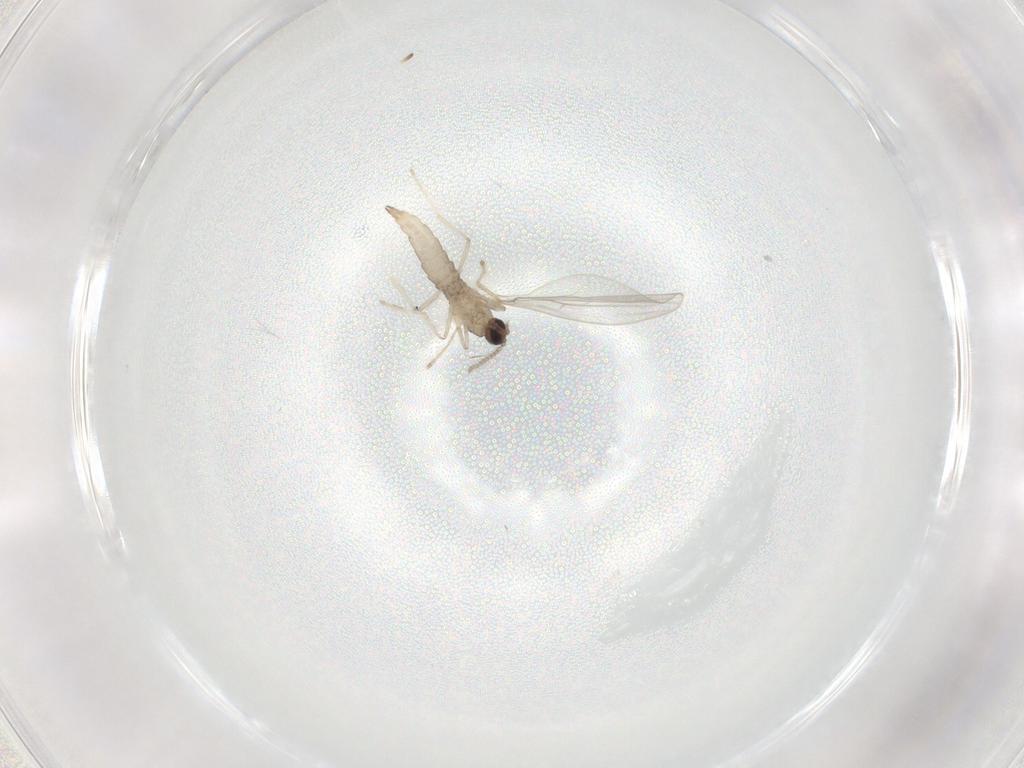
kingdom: Animalia
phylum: Arthropoda
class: Insecta
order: Diptera
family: Cecidomyiidae
